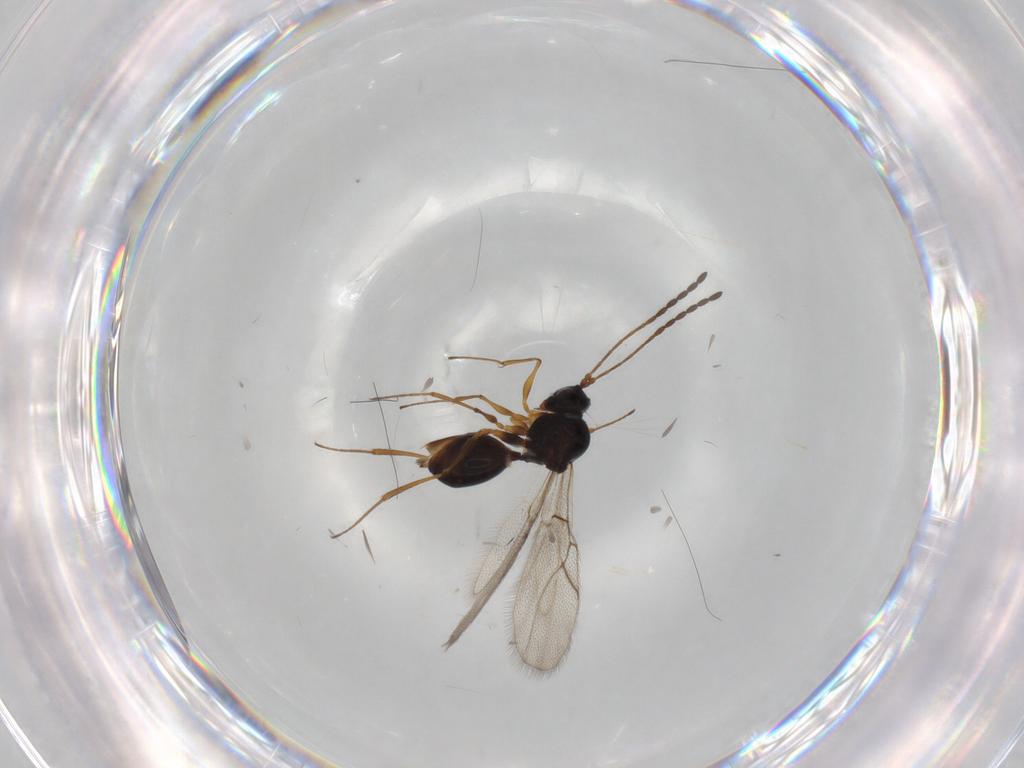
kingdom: Animalia
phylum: Arthropoda
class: Insecta
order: Hymenoptera
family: Figitidae
